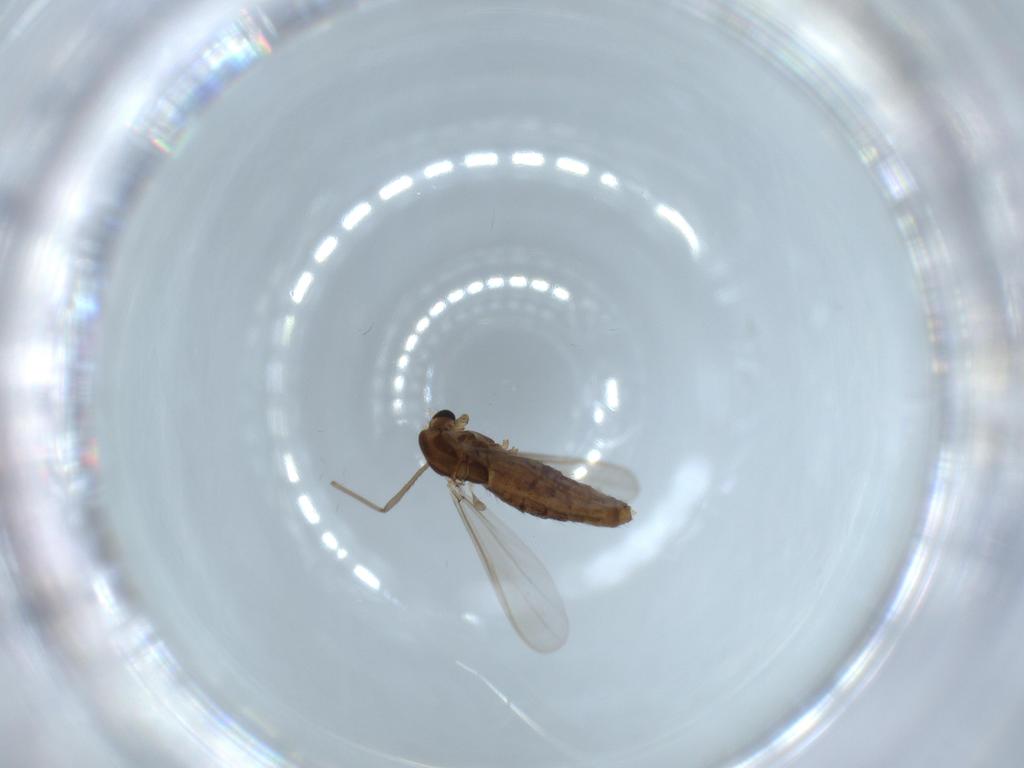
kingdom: Animalia
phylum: Arthropoda
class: Insecta
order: Diptera
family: Chironomidae
